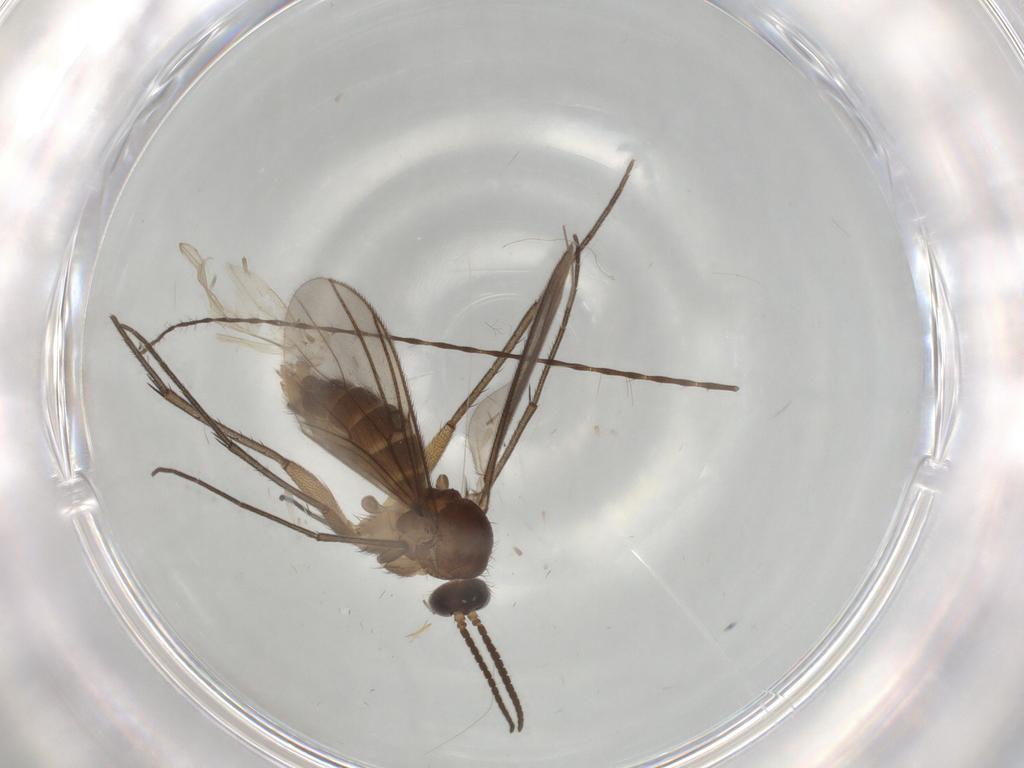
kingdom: Animalia
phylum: Arthropoda
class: Insecta
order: Diptera
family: Mycetophilidae
